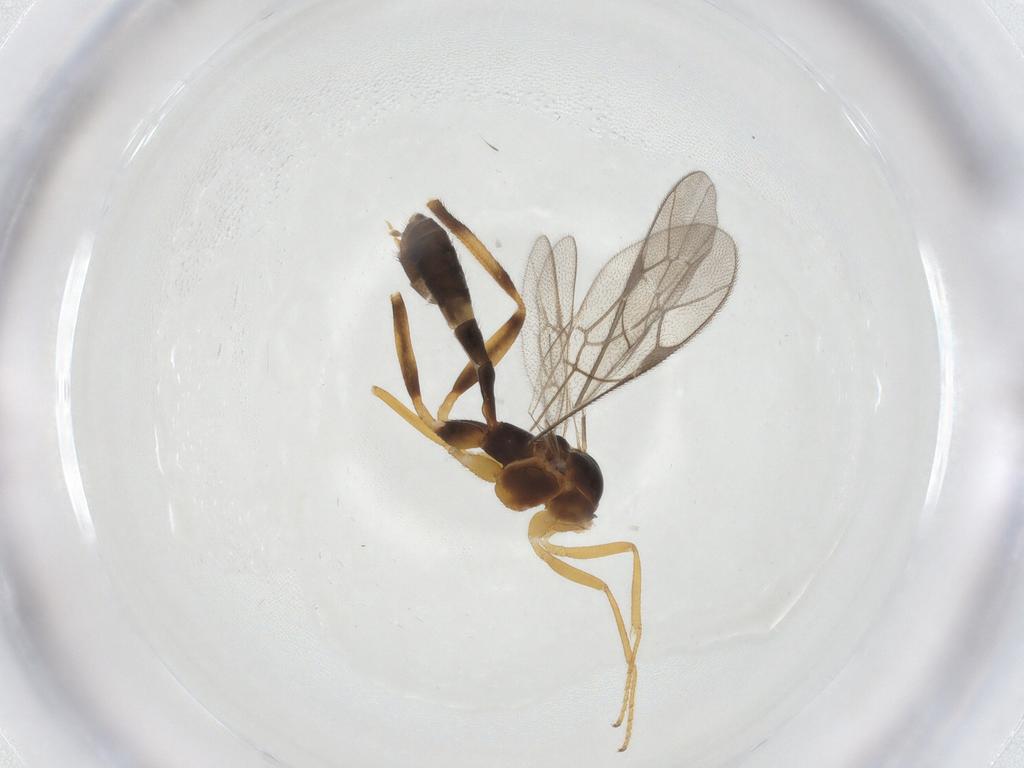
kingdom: Animalia
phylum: Arthropoda
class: Insecta
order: Hymenoptera
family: Ichneumonidae
